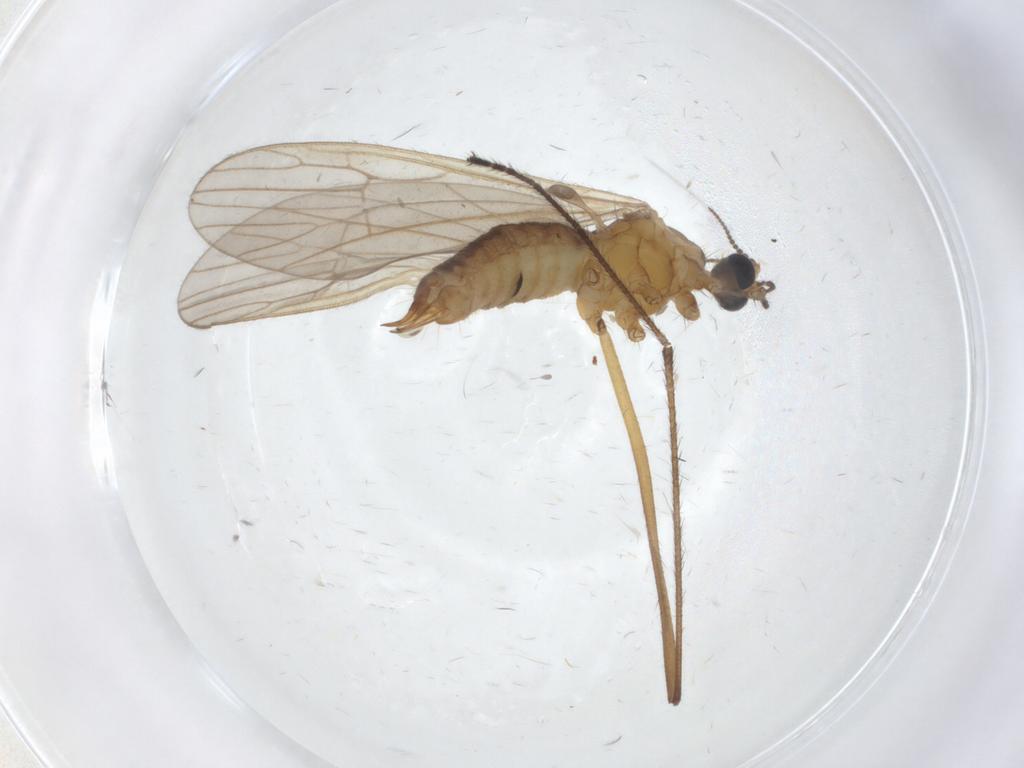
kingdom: Animalia
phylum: Arthropoda
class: Insecta
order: Diptera
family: Limoniidae
